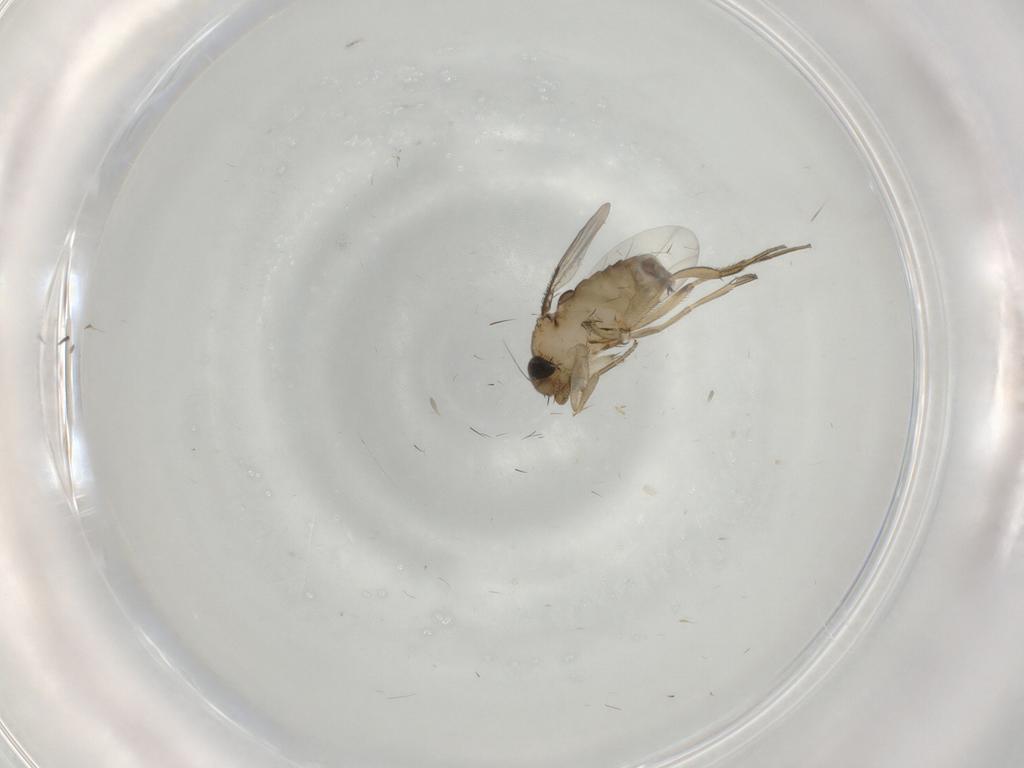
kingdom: Animalia
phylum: Arthropoda
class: Insecta
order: Diptera
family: Phoridae
